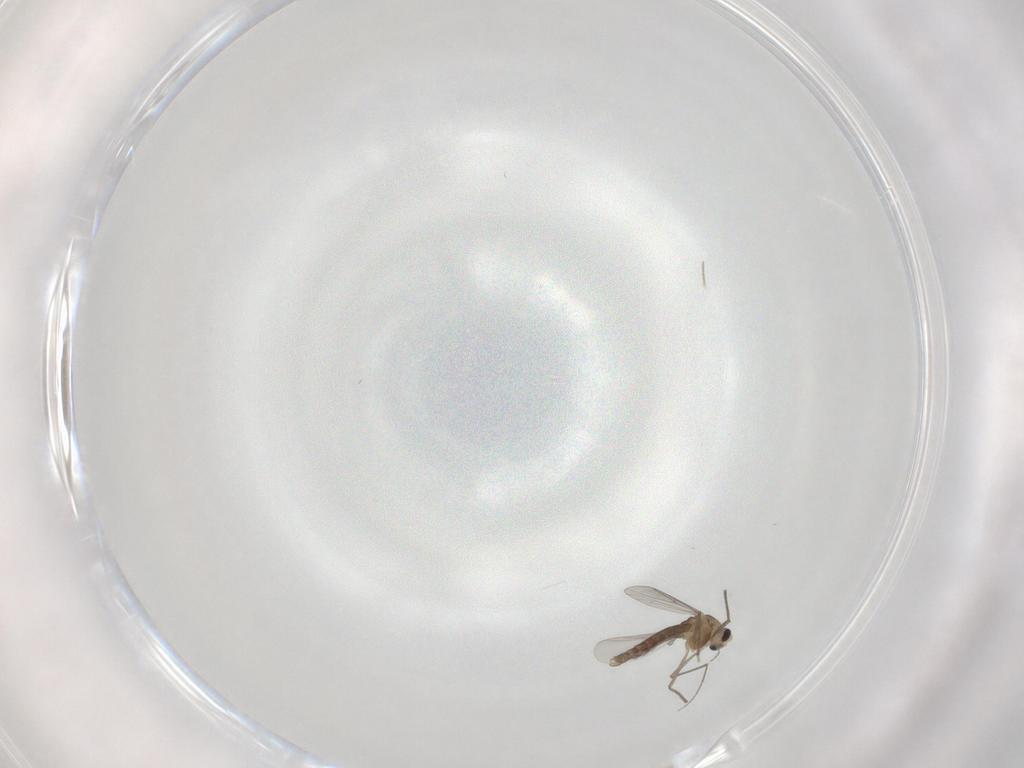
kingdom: Animalia
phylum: Arthropoda
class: Insecta
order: Diptera
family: Chironomidae
